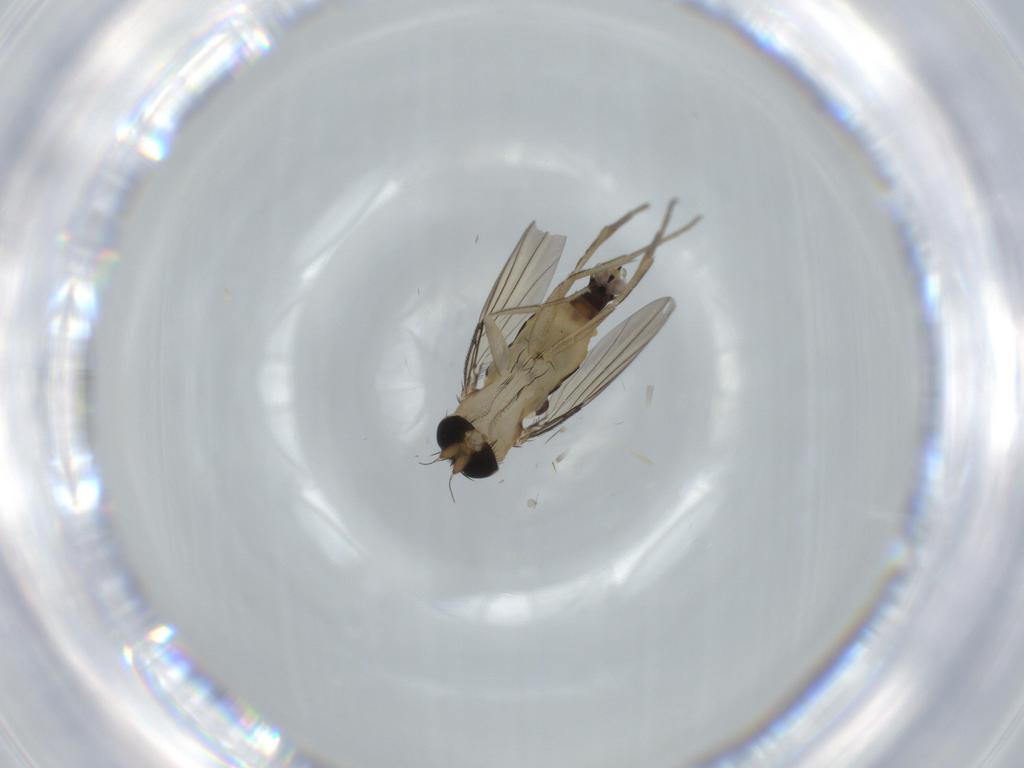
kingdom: Animalia
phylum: Arthropoda
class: Insecta
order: Diptera
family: Phoridae
